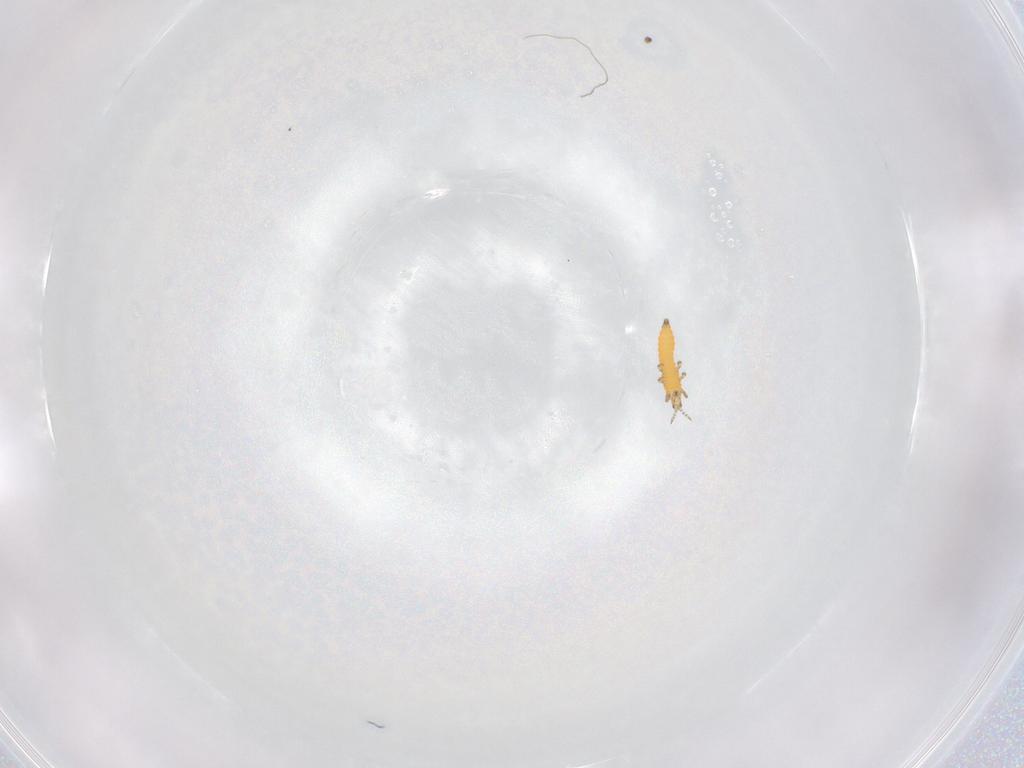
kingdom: Animalia
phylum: Arthropoda
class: Insecta
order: Thysanoptera
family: Thripidae
